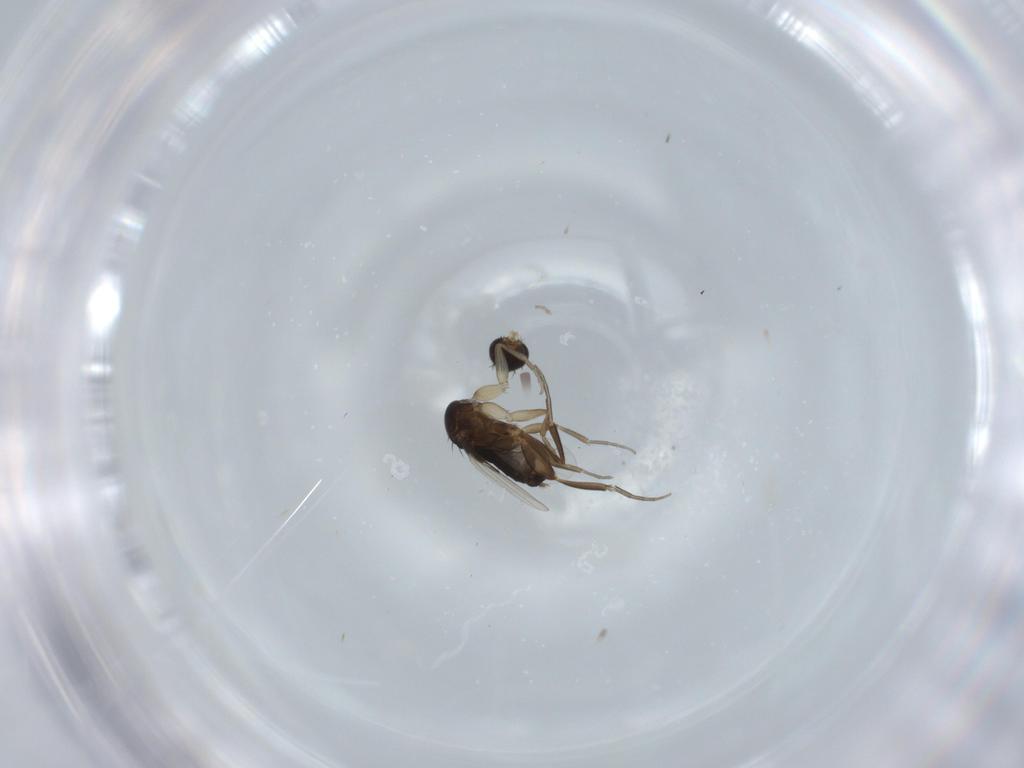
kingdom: Animalia
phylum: Arthropoda
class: Insecta
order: Diptera
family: Sciaridae
